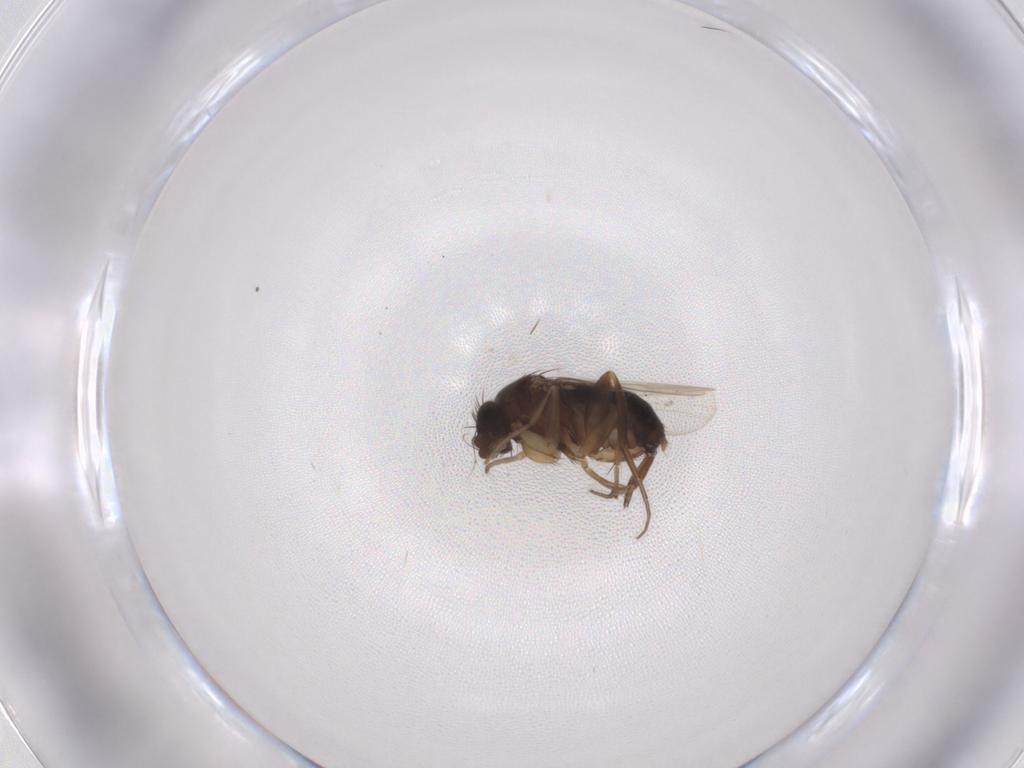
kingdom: Animalia
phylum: Arthropoda
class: Insecta
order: Diptera
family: Phoridae
